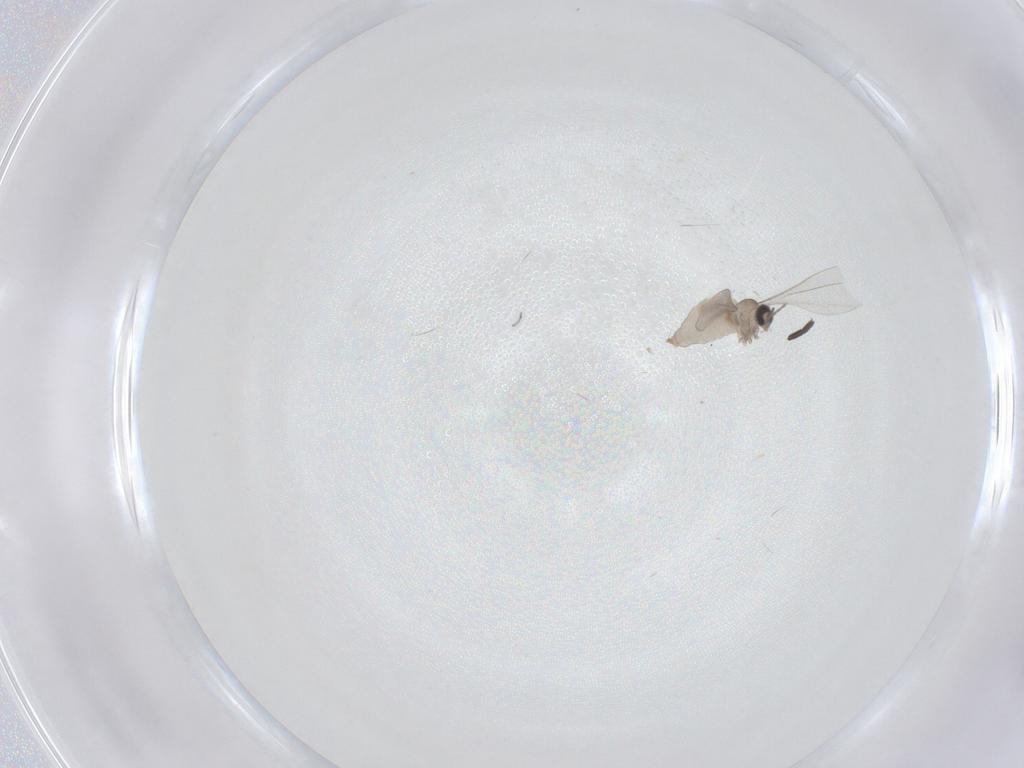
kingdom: Animalia
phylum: Arthropoda
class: Insecta
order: Diptera
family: Sciaridae
